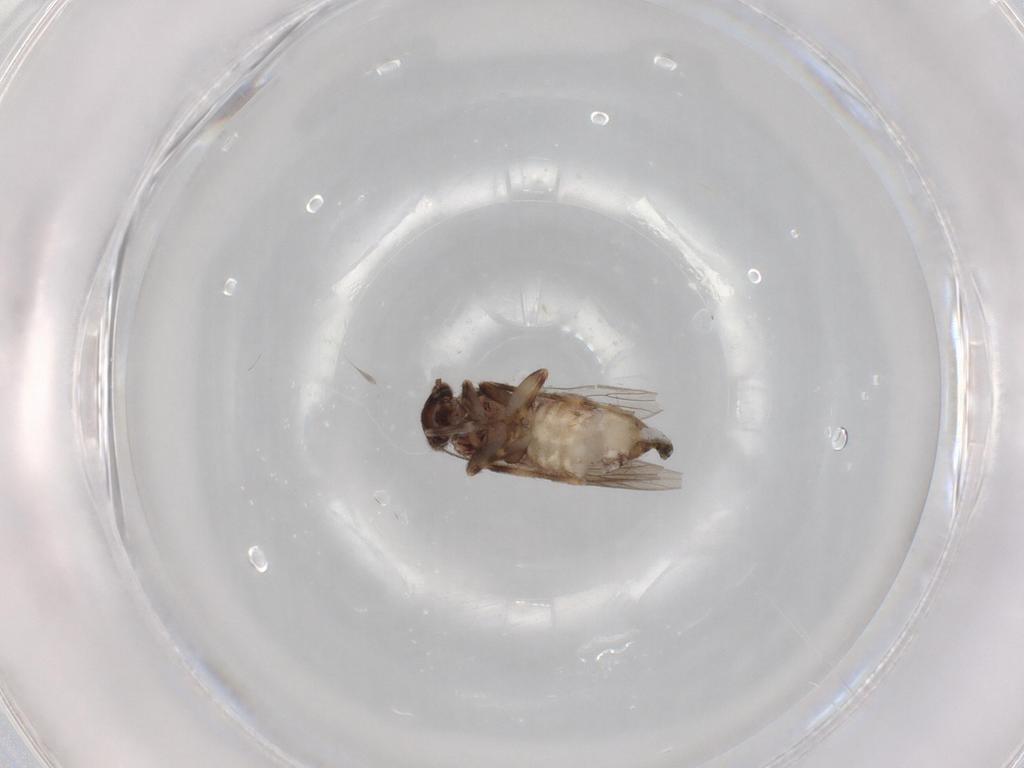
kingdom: Animalia
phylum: Arthropoda
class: Insecta
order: Psocodea
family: Lepidopsocidae
